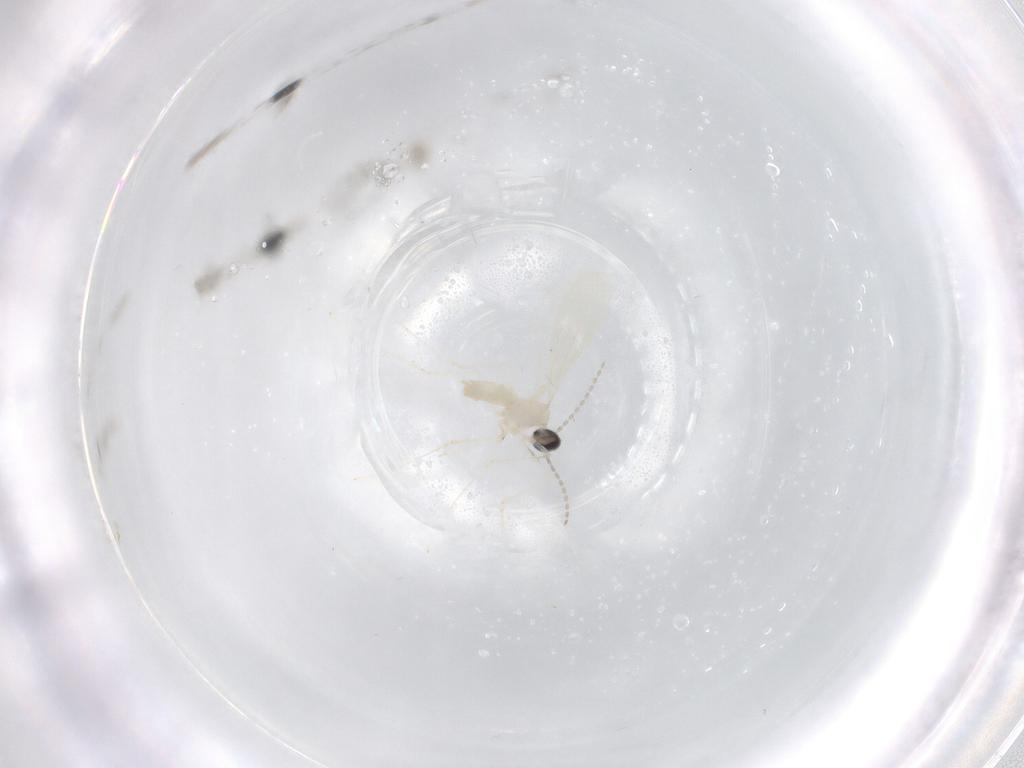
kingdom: Animalia
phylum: Arthropoda
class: Insecta
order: Diptera
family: Cecidomyiidae
